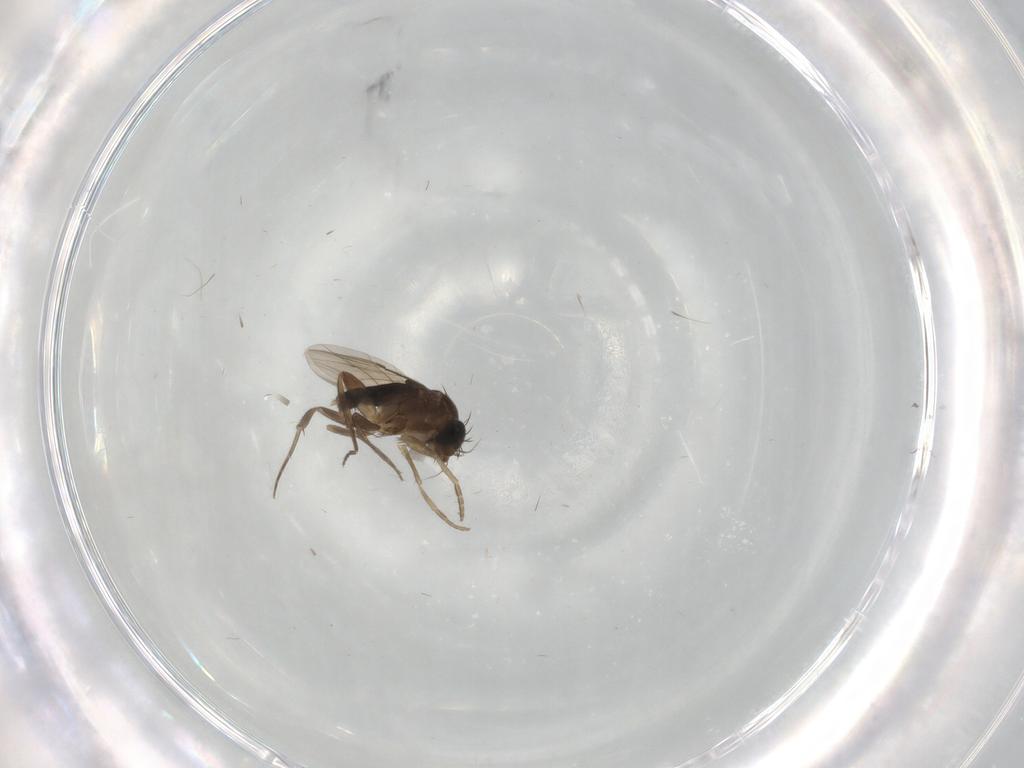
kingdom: Animalia
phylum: Arthropoda
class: Insecta
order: Diptera
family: Phoridae
